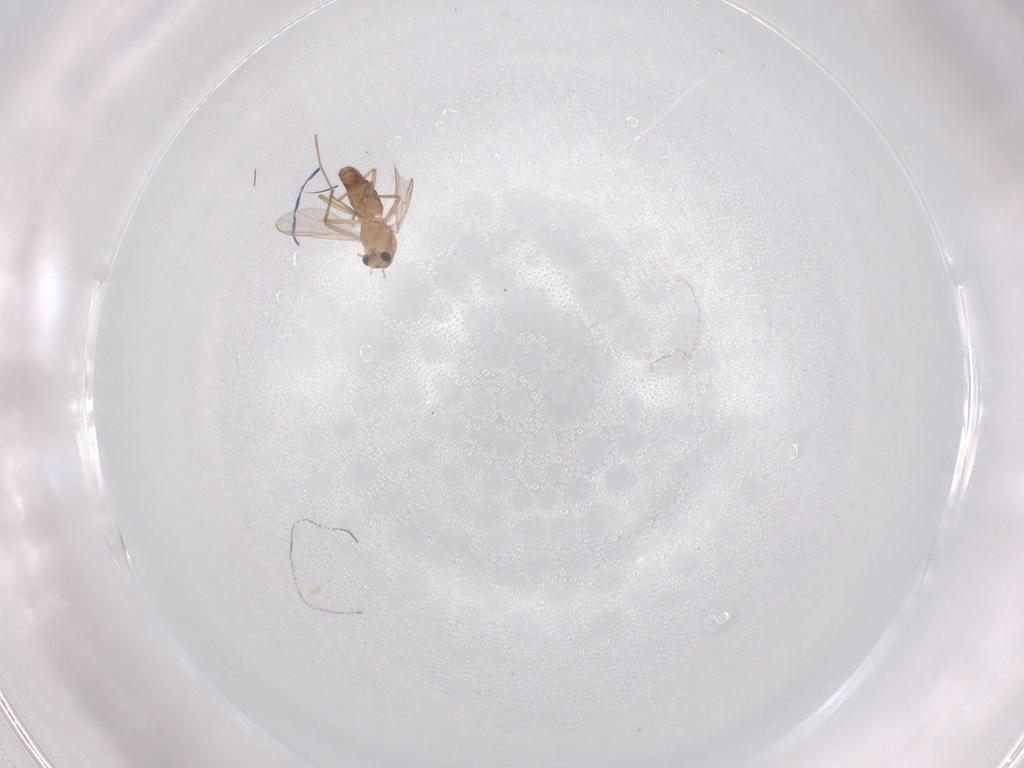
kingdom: Animalia
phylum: Arthropoda
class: Insecta
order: Diptera
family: Chironomidae
